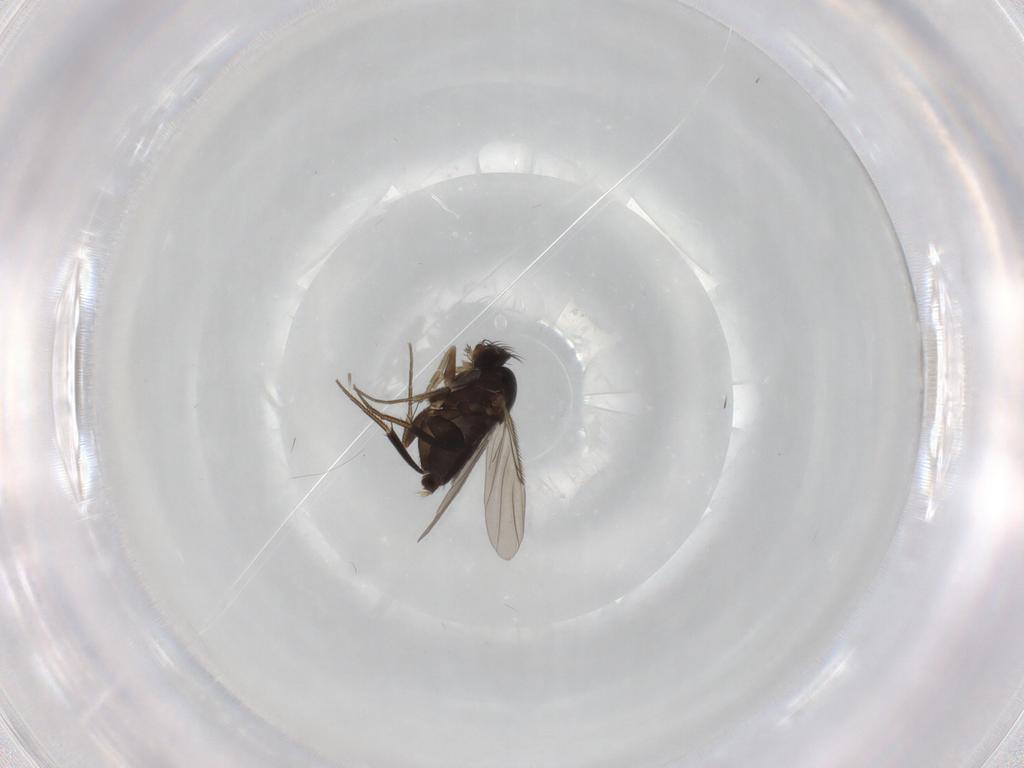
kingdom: Animalia
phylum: Arthropoda
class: Insecta
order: Diptera
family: Phoridae
